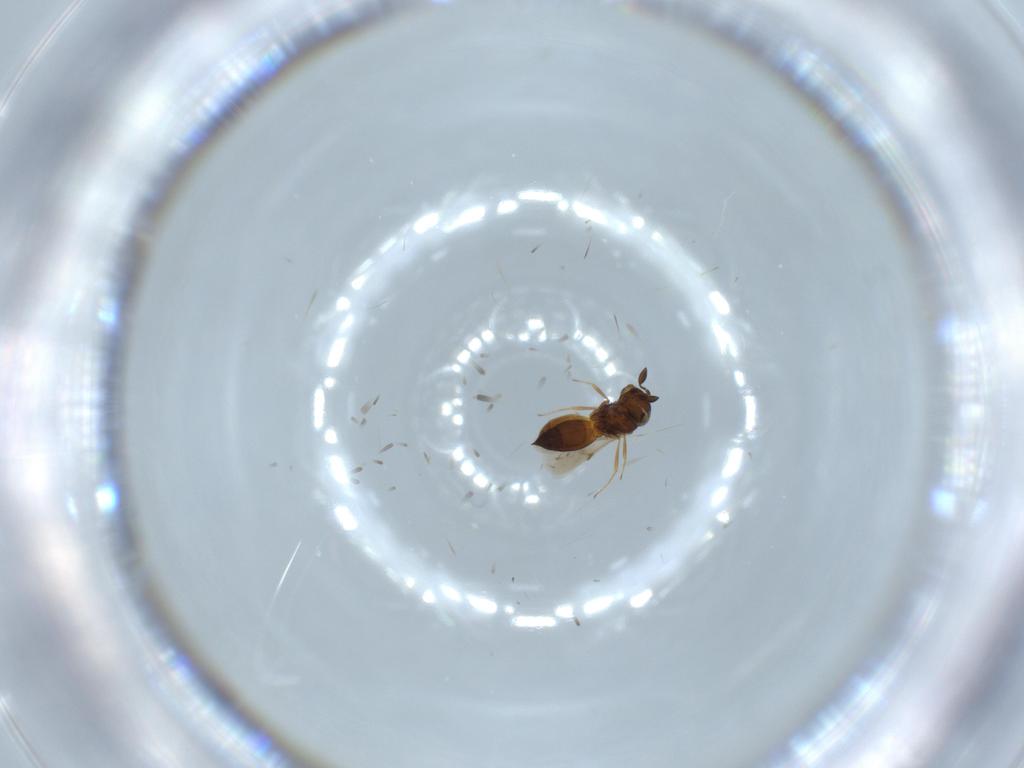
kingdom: Animalia
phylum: Arthropoda
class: Insecta
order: Hymenoptera
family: Scelionidae
